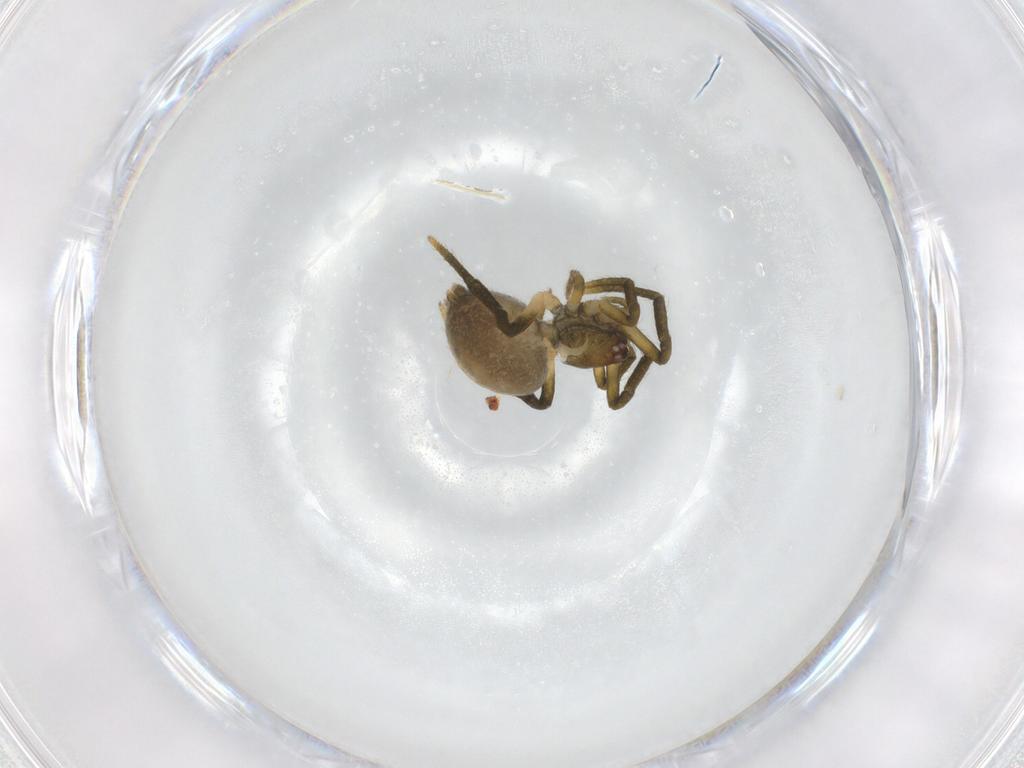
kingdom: Animalia
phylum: Arthropoda
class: Arachnida
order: Araneae
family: Theridiidae
